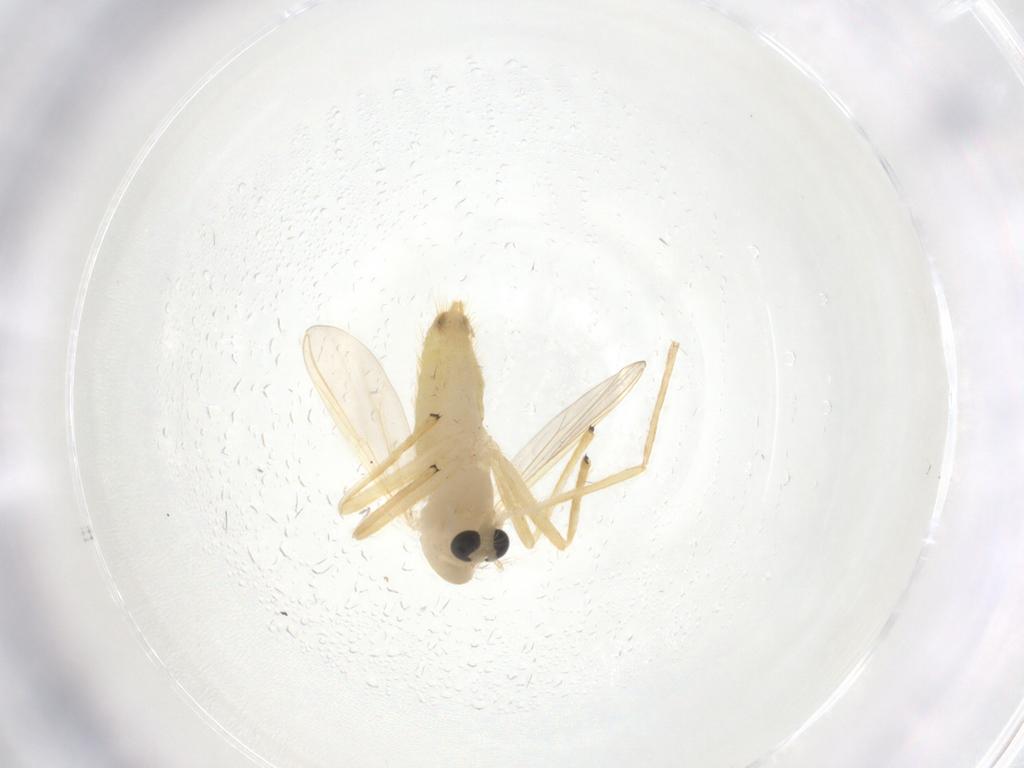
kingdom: Animalia
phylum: Arthropoda
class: Insecta
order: Diptera
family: Chironomidae
